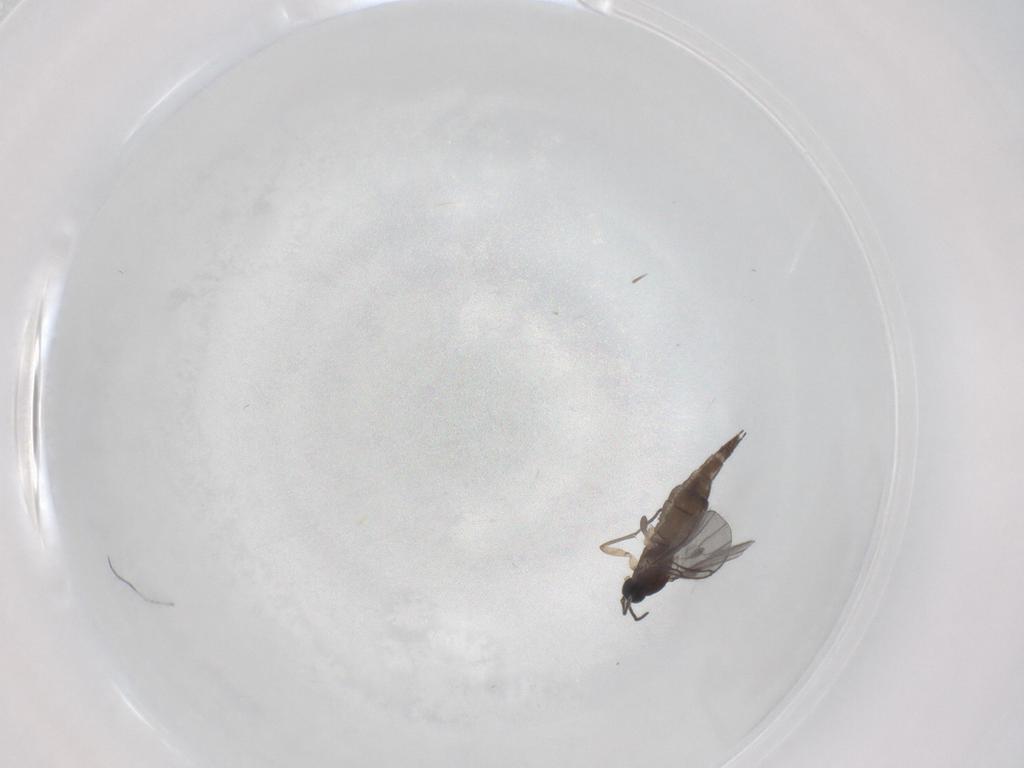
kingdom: Animalia
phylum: Arthropoda
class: Insecta
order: Diptera
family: Sciaridae
